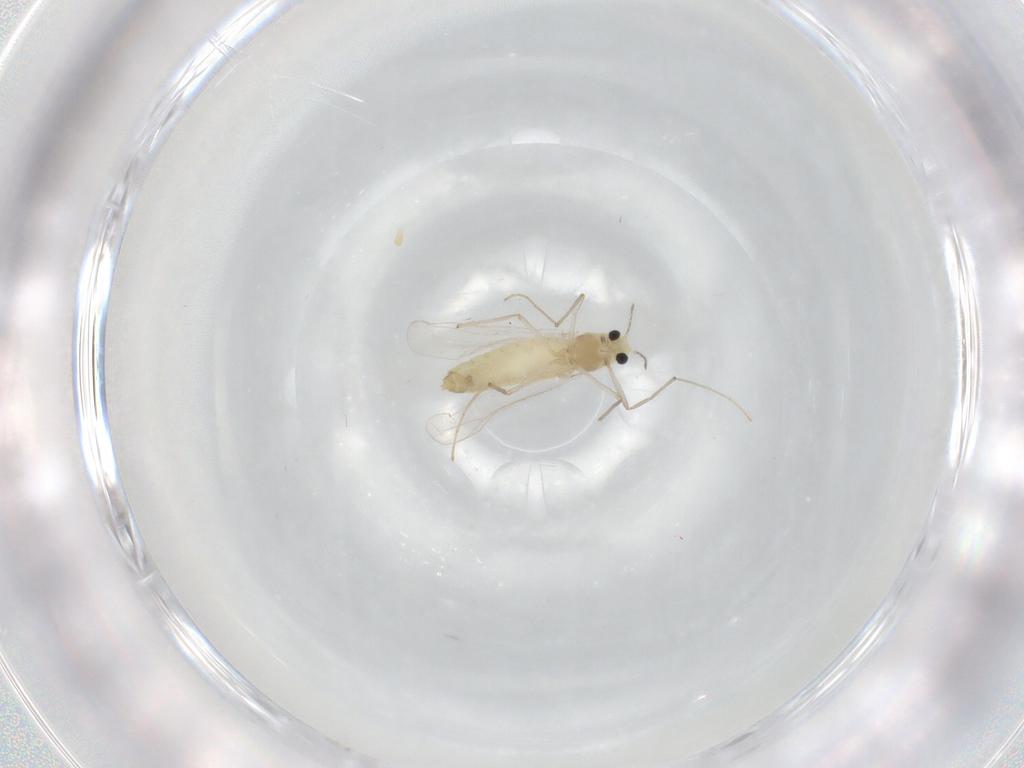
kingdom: Animalia
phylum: Arthropoda
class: Insecta
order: Diptera
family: Chironomidae
